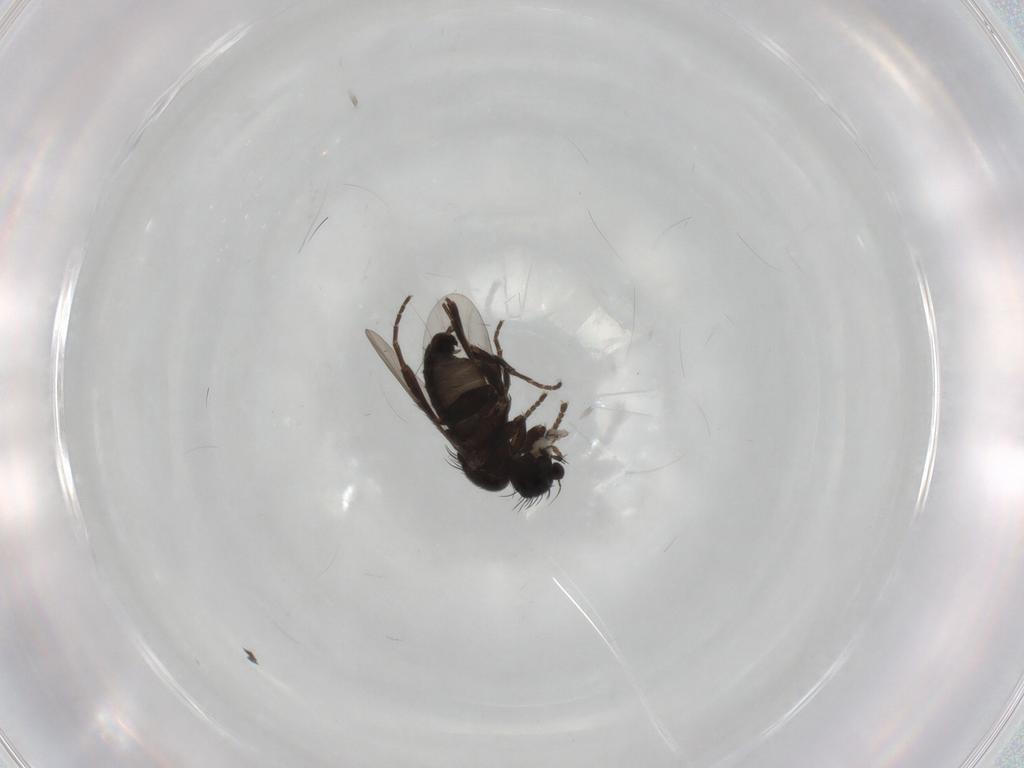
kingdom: Animalia
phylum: Arthropoda
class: Insecta
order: Diptera
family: Phoridae
